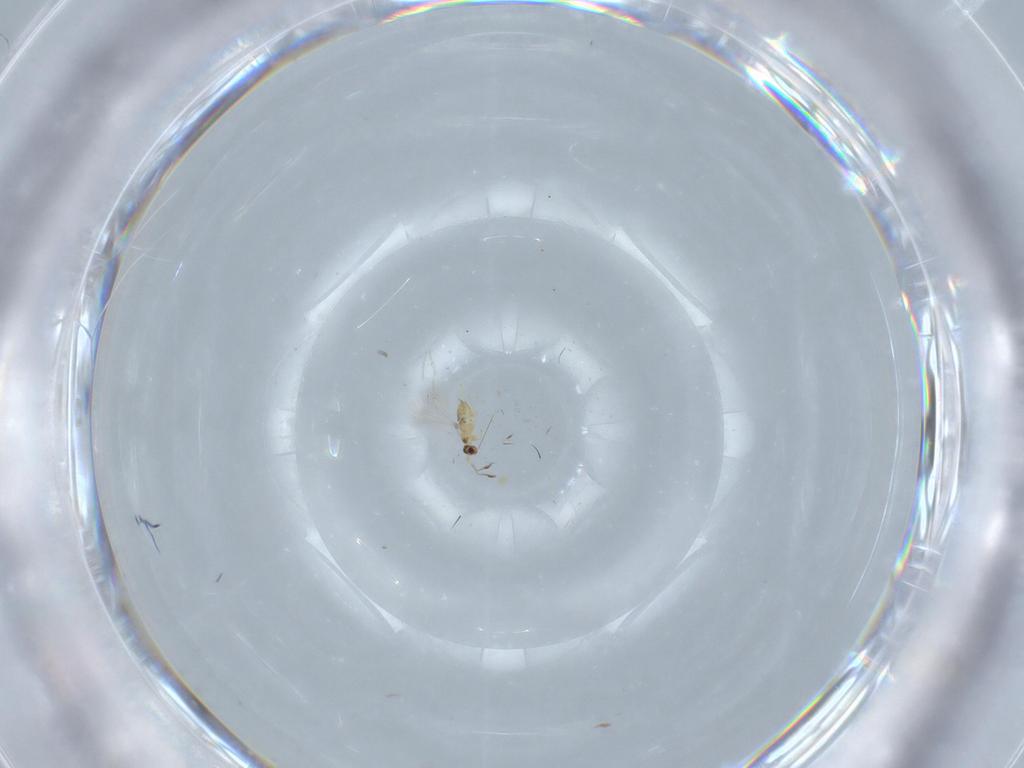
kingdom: Animalia
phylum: Arthropoda
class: Insecta
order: Hymenoptera
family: Mymaridae
